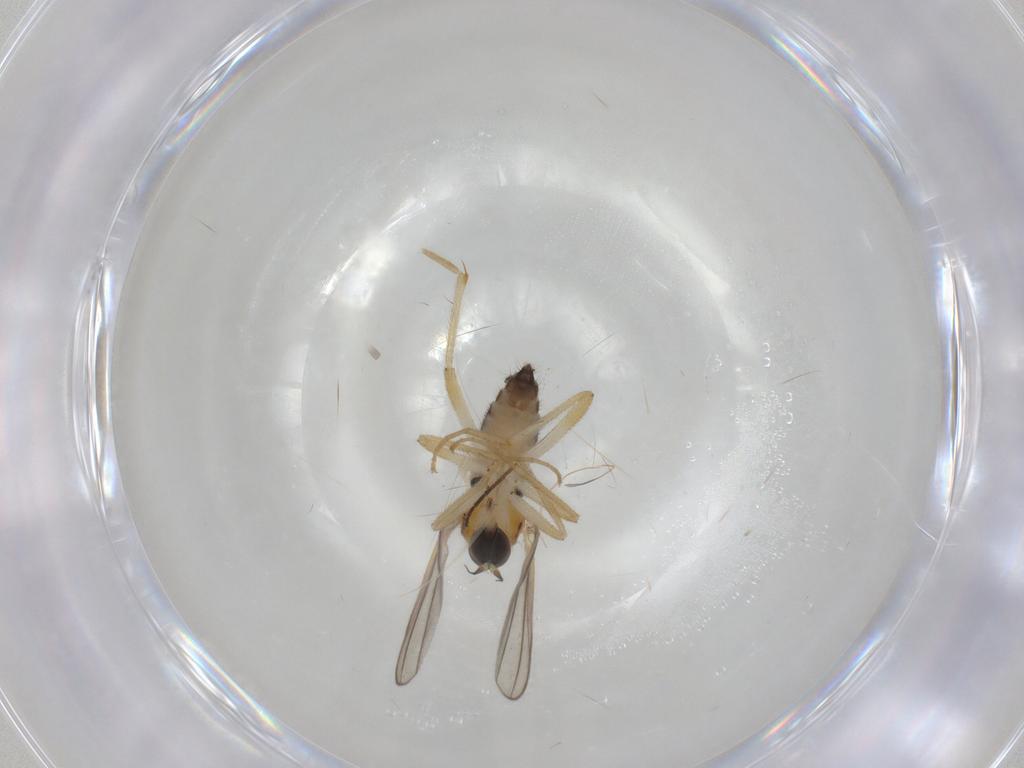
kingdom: Animalia
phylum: Arthropoda
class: Insecta
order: Diptera
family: Hybotidae
